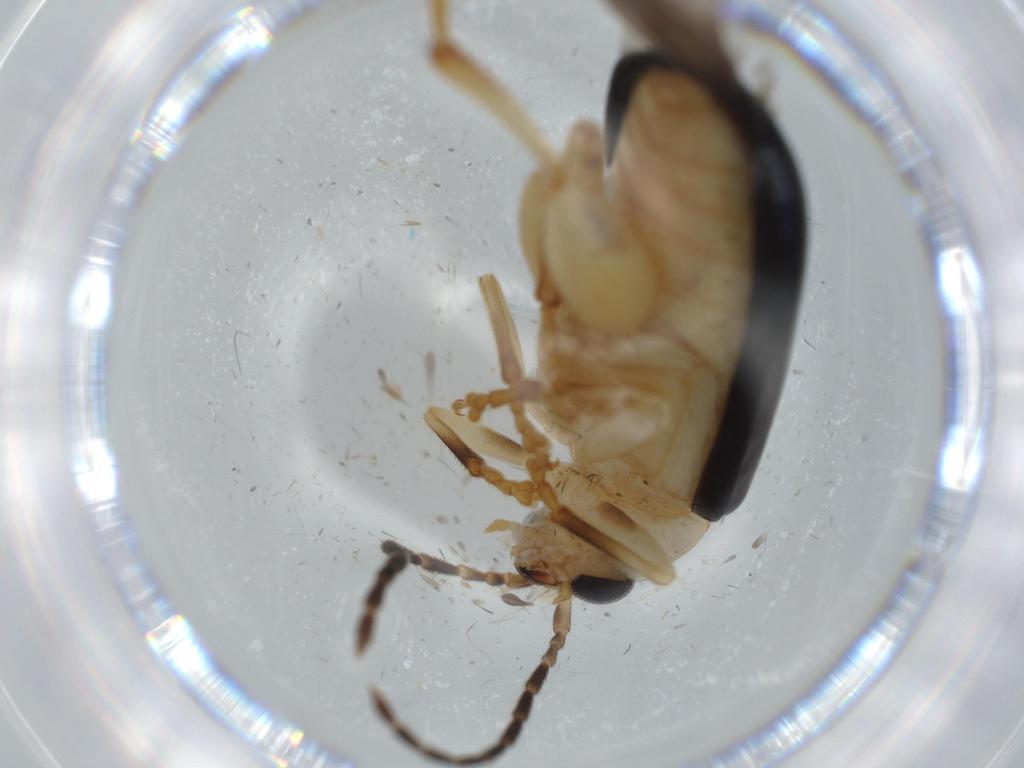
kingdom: Animalia
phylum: Arthropoda
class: Insecta
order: Coleoptera
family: Chrysomelidae
